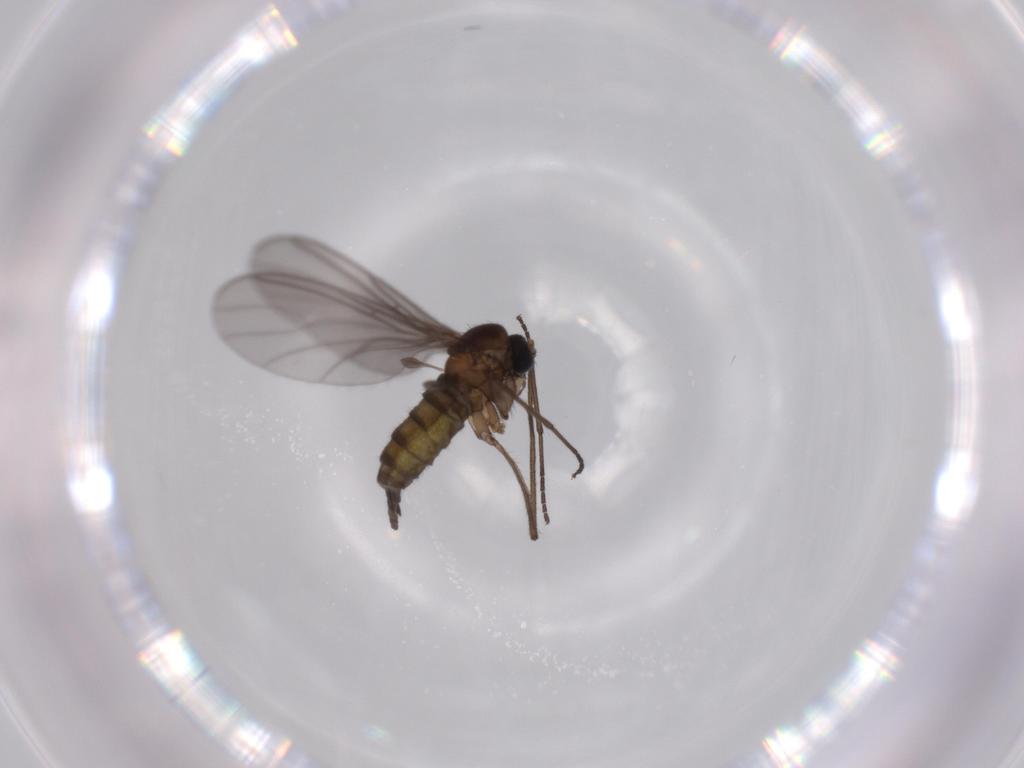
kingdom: Animalia
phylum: Arthropoda
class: Insecta
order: Diptera
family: Sciaridae
